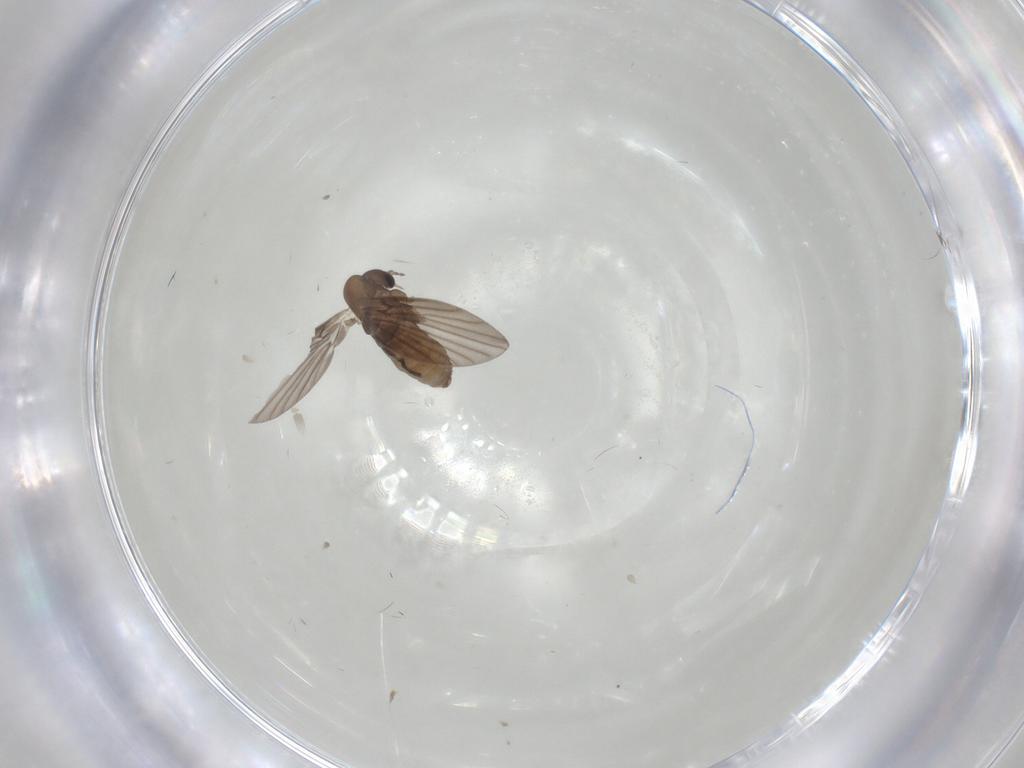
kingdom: Animalia
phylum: Arthropoda
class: Insecta
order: Diptera
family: Psychodidae
